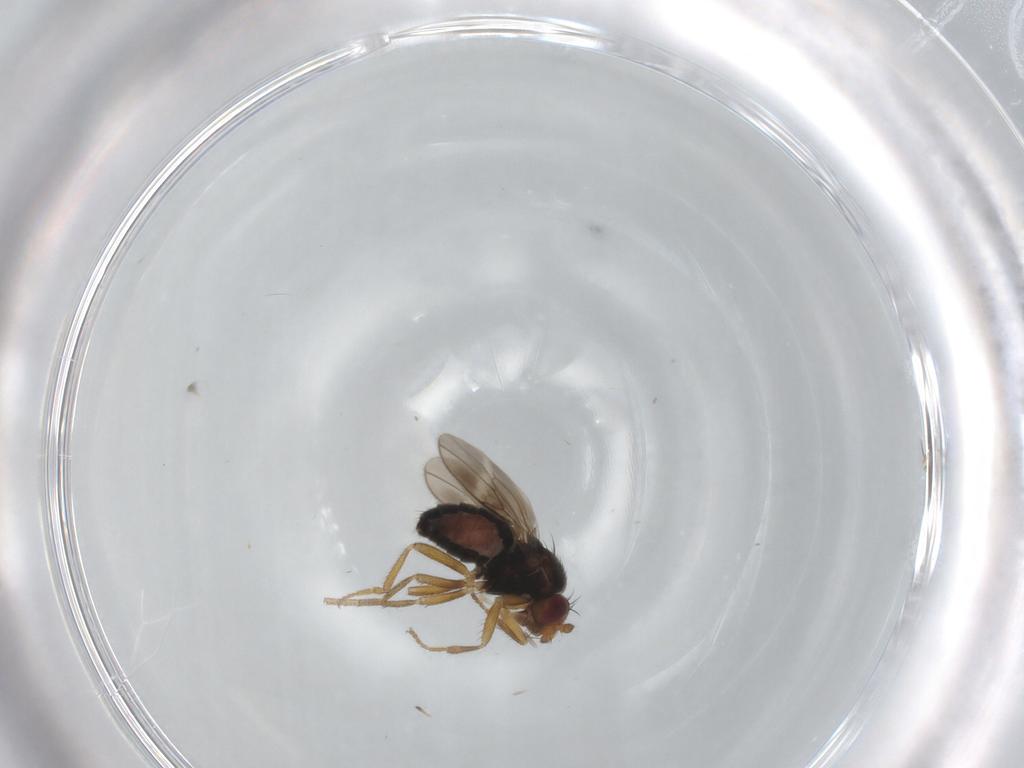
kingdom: Animalia
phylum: Arthropoda
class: Insecta
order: Diptera
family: Sphaeroceridae
